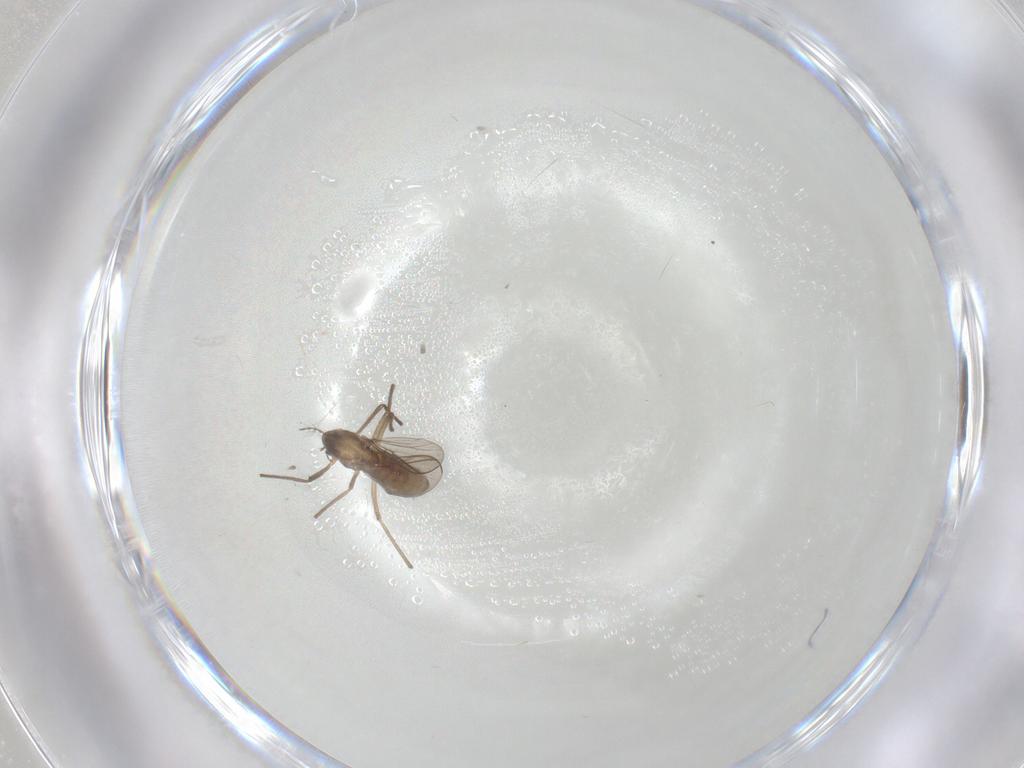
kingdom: Animalia
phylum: Arthropoda
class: Insecta
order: Diptera
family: Chironomidae
